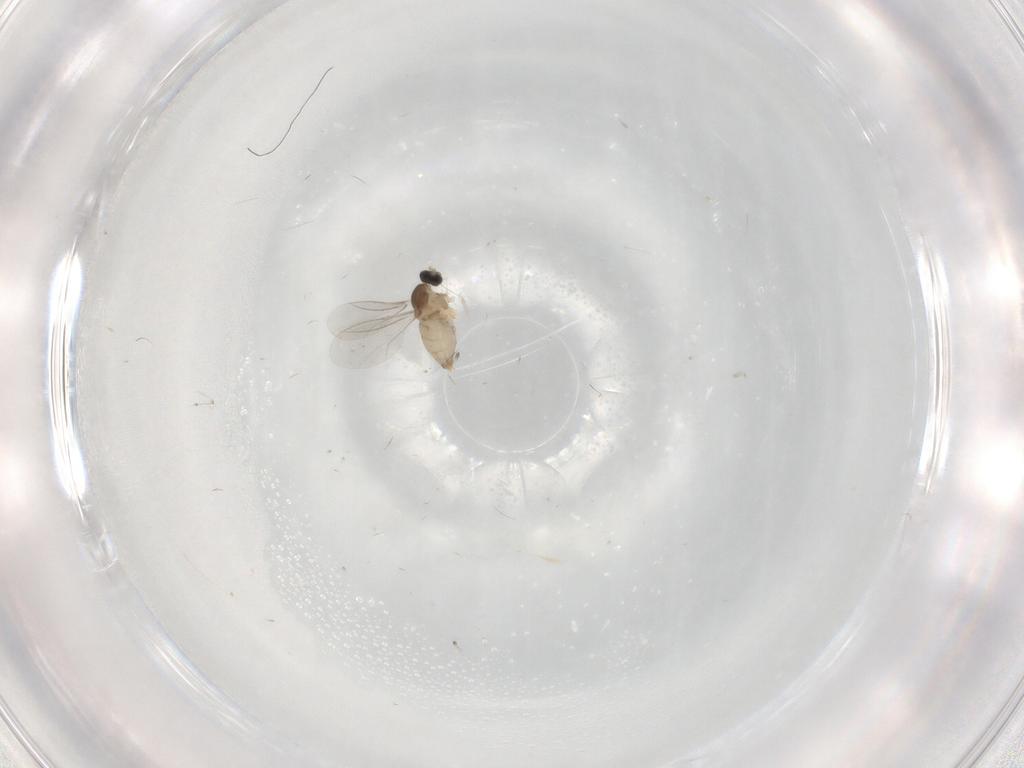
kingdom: Animalia
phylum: Arthropoda
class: Insecta
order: Diptera
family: Cecidomyiidae
